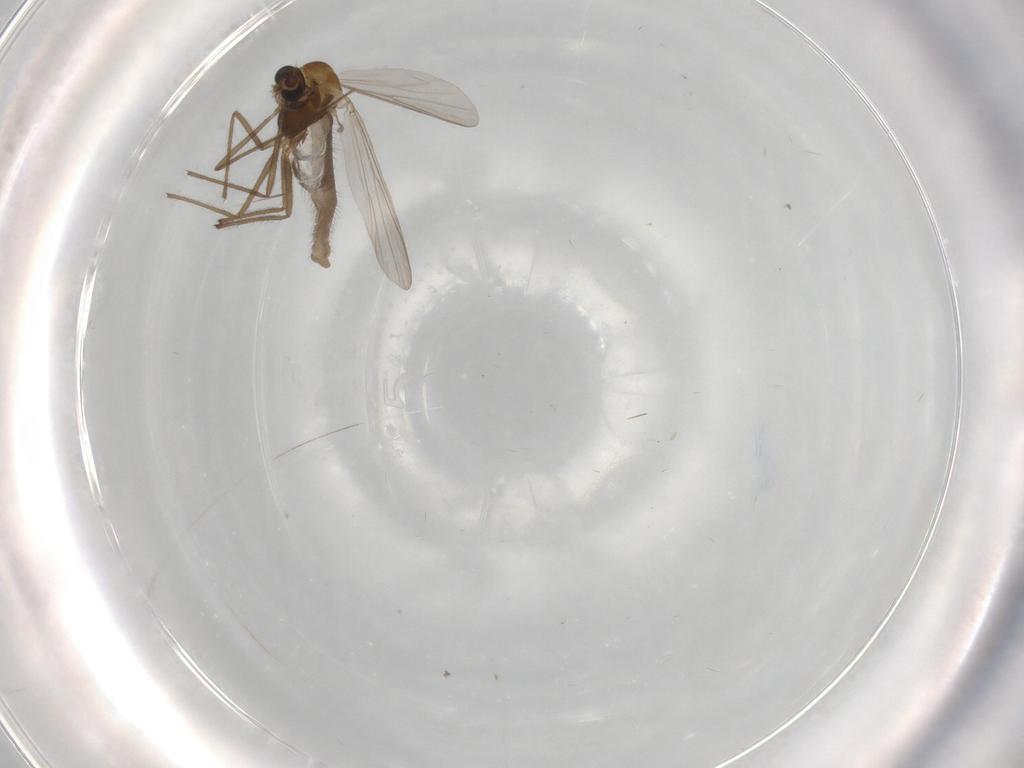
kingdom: Animalia
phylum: Arthropoda
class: Insecta
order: Diptera
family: Chironomidae
